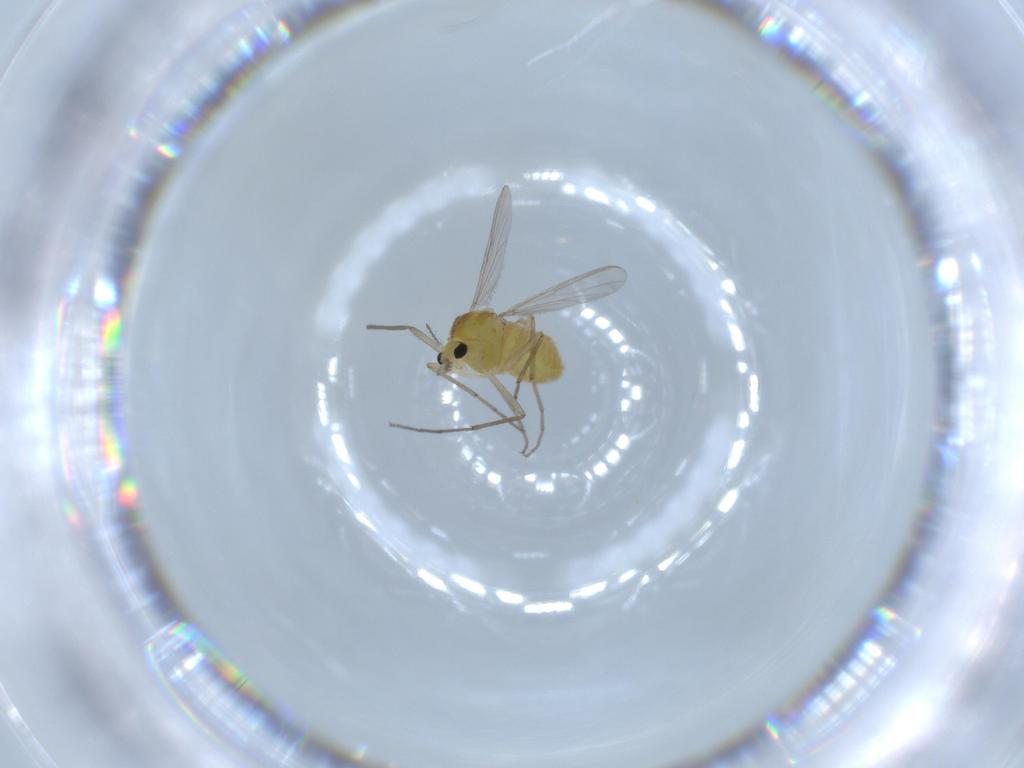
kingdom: Animalia
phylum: Arthropoda
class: Insecta
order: Diptera
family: Chironomidae
